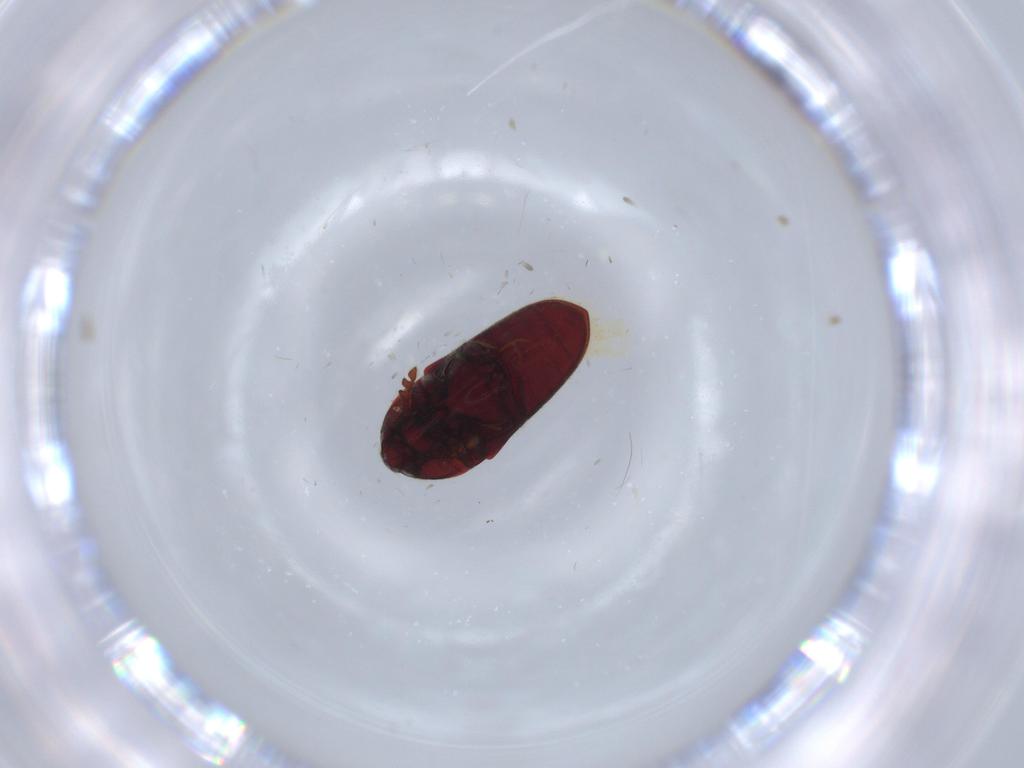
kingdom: Animalia
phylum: Arthropoda
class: Insecta
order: Coleoptera
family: Throscidae
